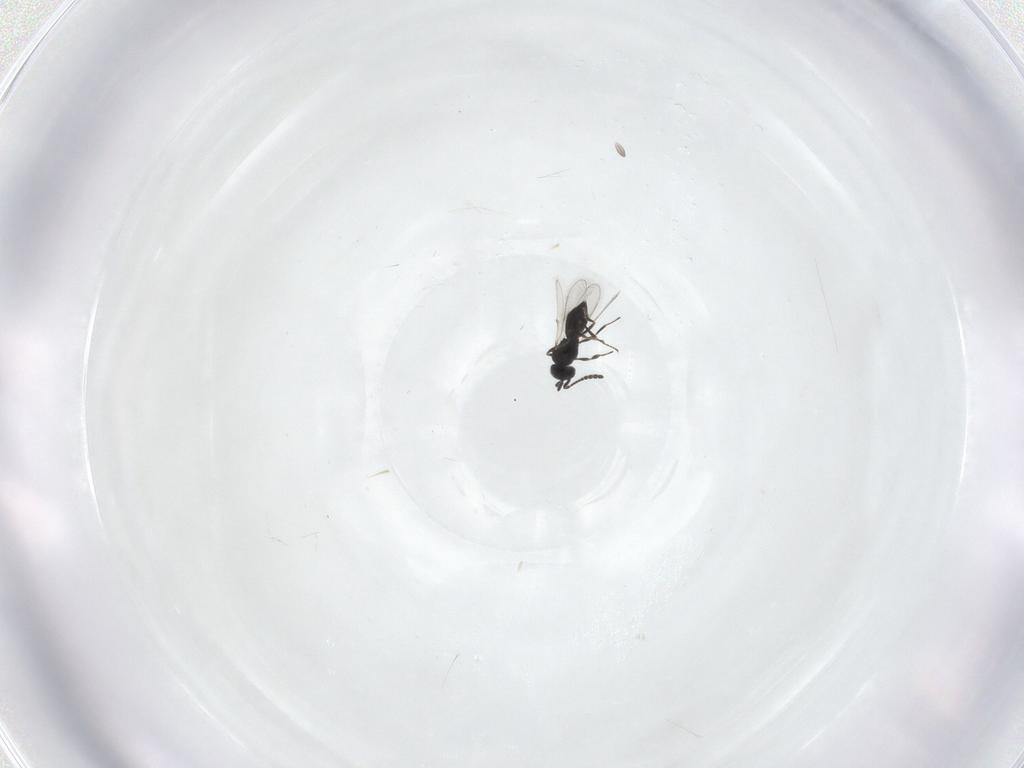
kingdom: Animalia
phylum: Arthropoda
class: Insecta
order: Hymenoptera
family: Scelionidae
